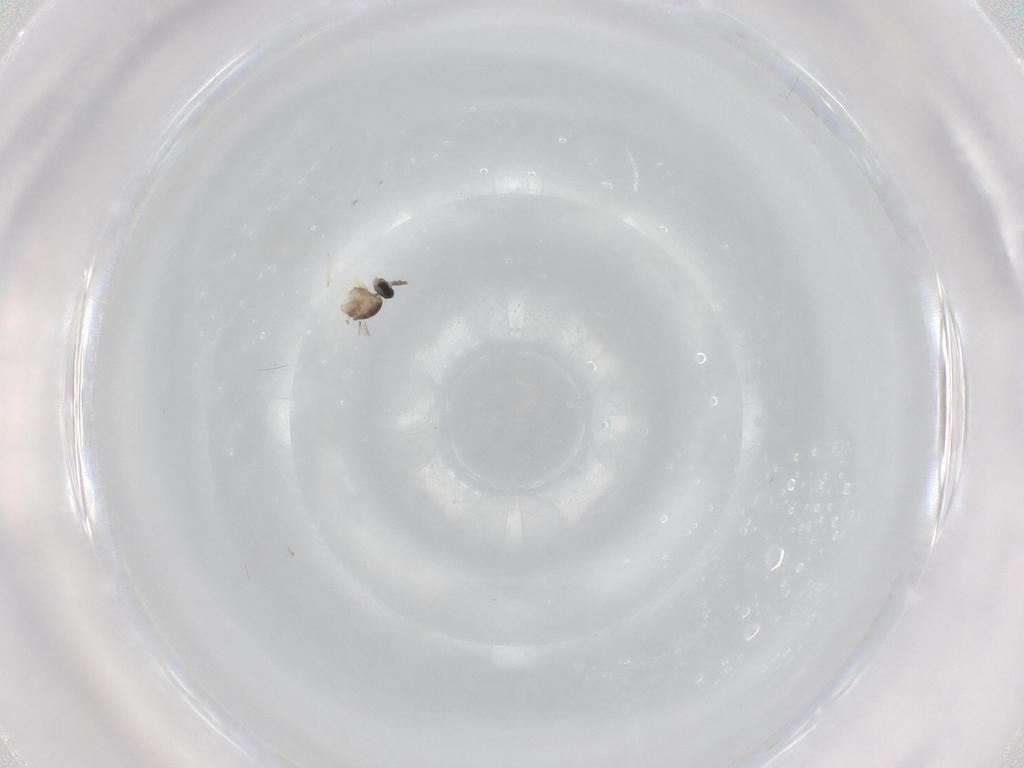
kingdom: Animalia
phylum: Arthropoda
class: Insecta
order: Diptera
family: Cecidomyiidae
